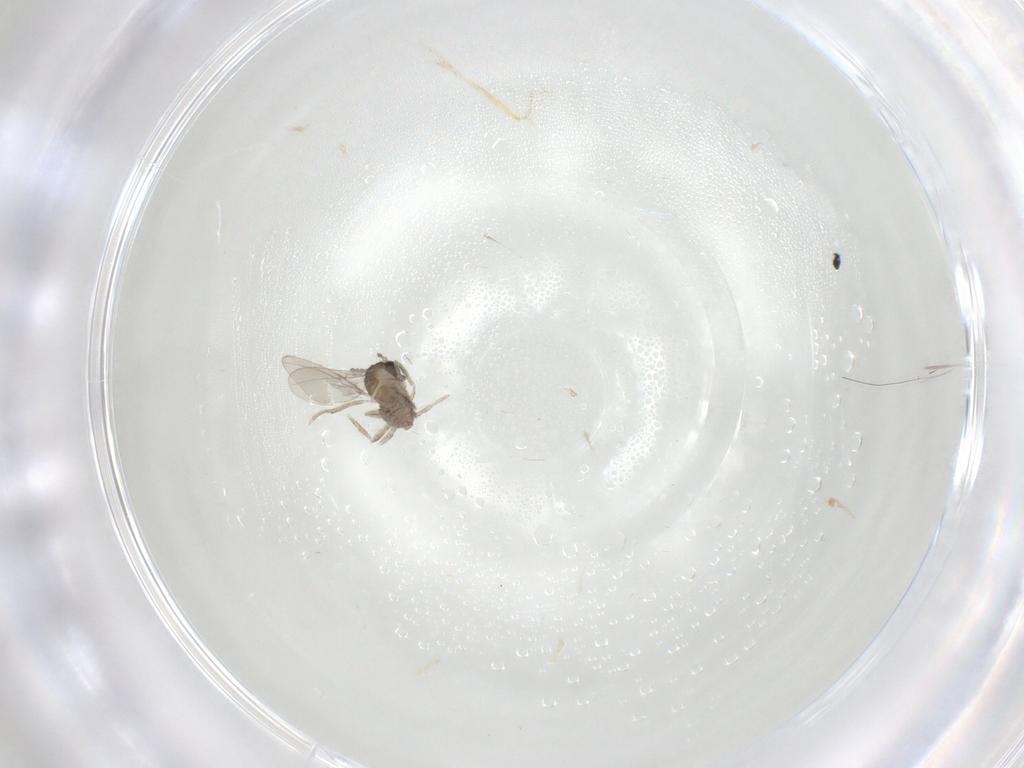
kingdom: Animalia
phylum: Arthropoda
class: Insecta
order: Diptera
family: Cecidomyiidae
